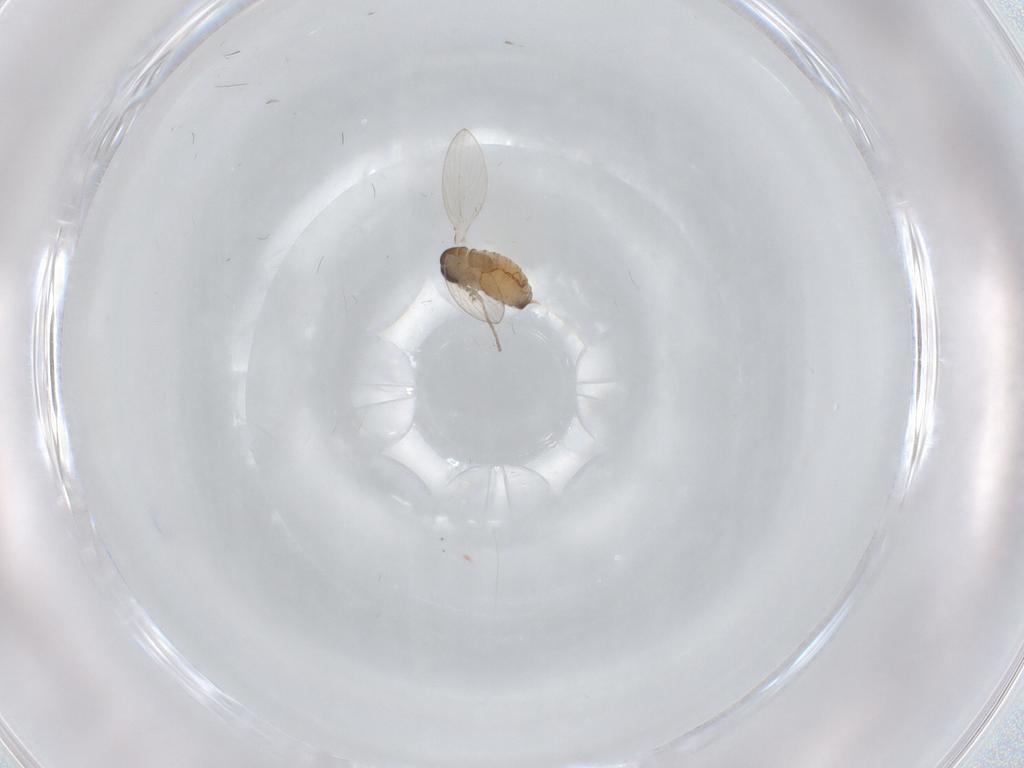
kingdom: Animalia
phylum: Arthropoda
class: Insecta
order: Diptera
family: Psychodidae
